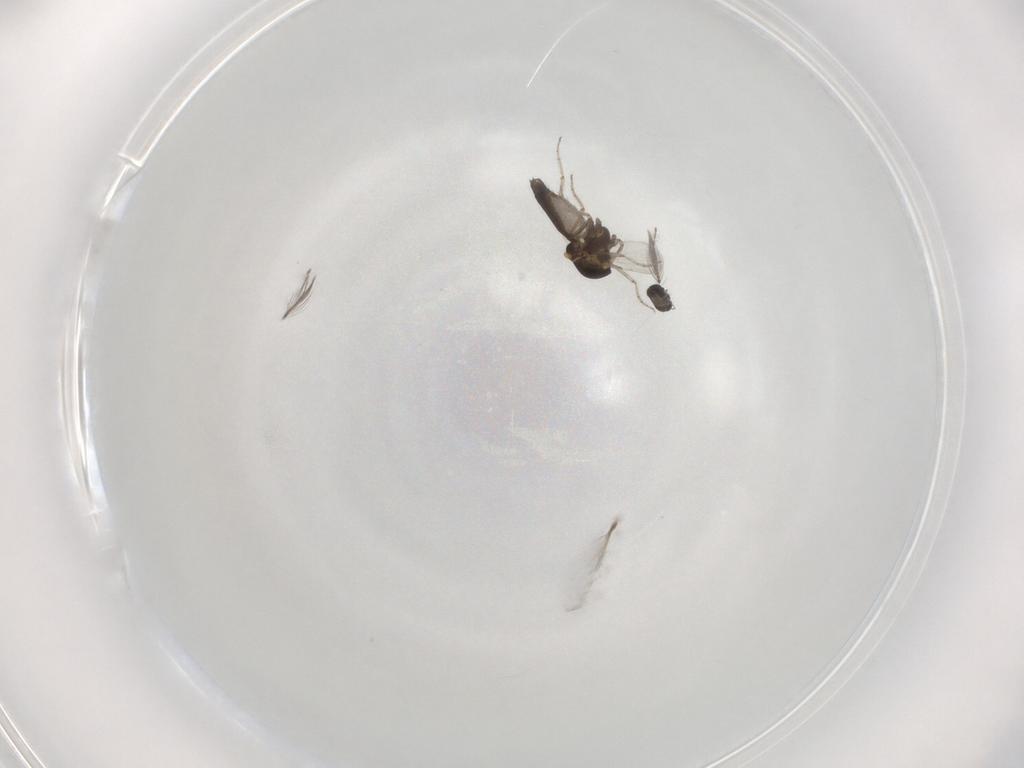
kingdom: Animalia
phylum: Arthropoda
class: Insecta
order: Diptera
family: Ceratopogonidae
